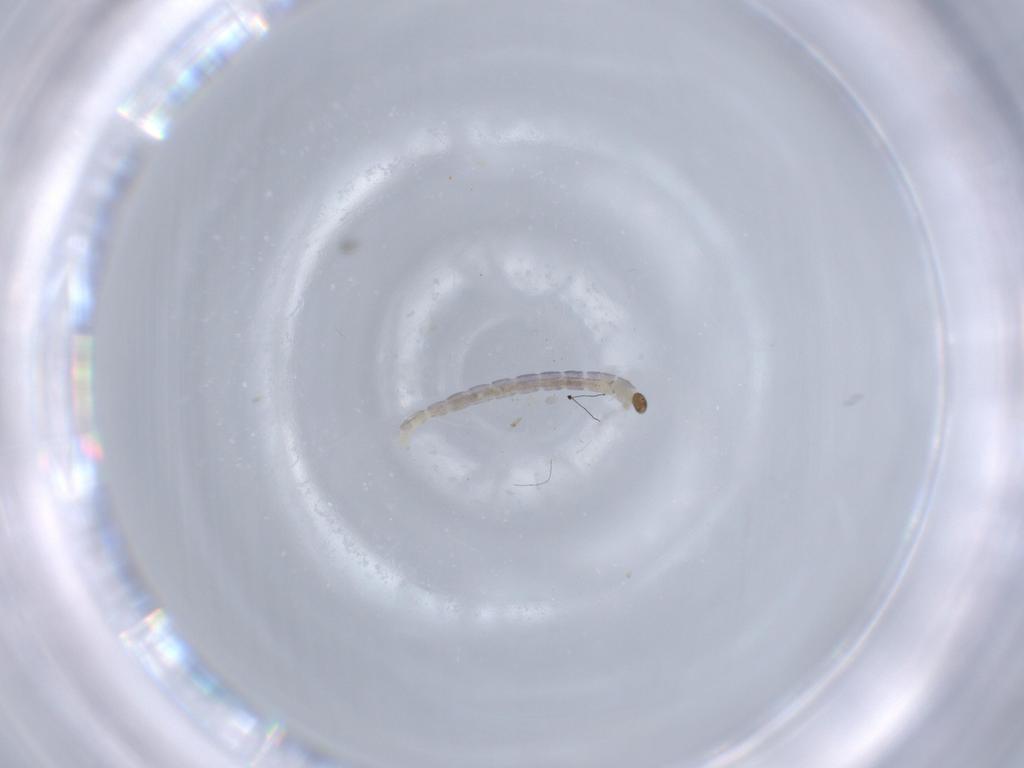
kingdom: Animalia
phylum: Arthropoda
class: Insecta
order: Diptera
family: Chironomidae
